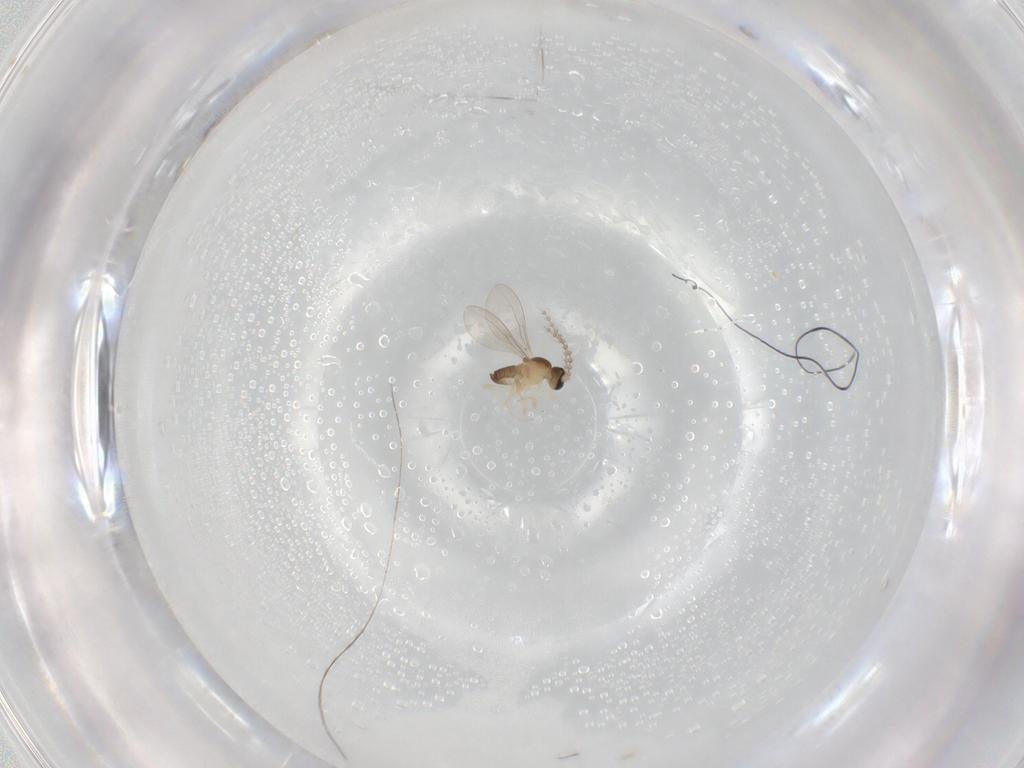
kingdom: Animalia
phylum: Arthropoda
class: Insecta
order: Diptera
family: Cecidomyiidae
